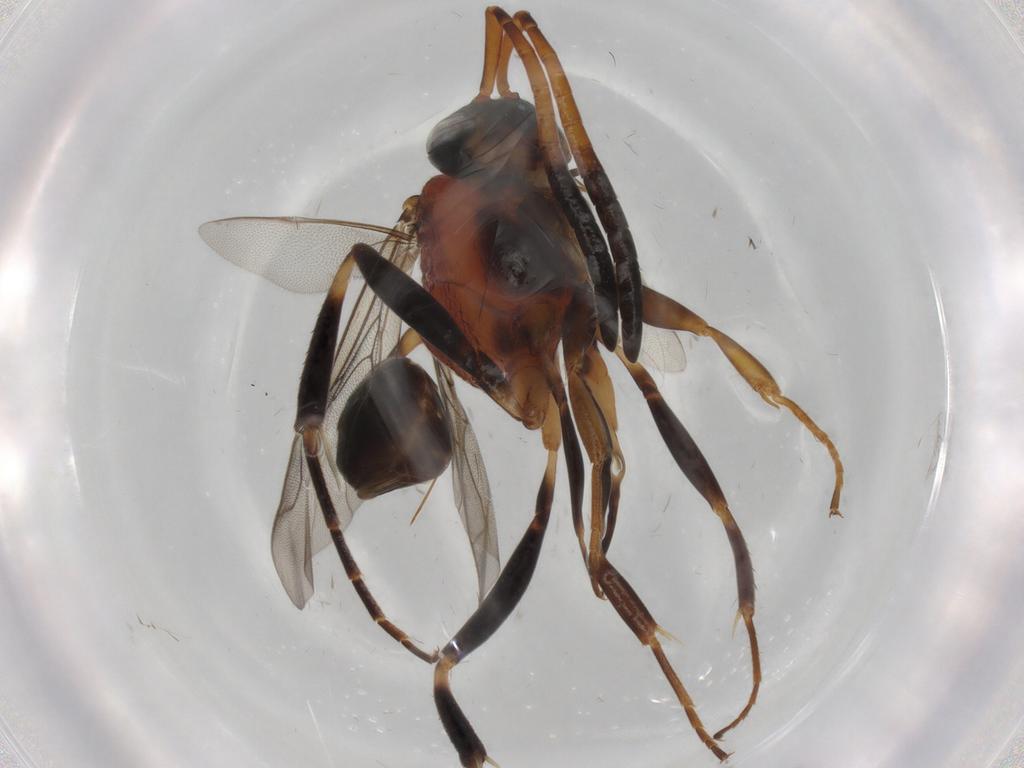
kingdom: Animalia
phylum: Arthropoda
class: Insecta
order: Hymenoptera
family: Evaniidae
